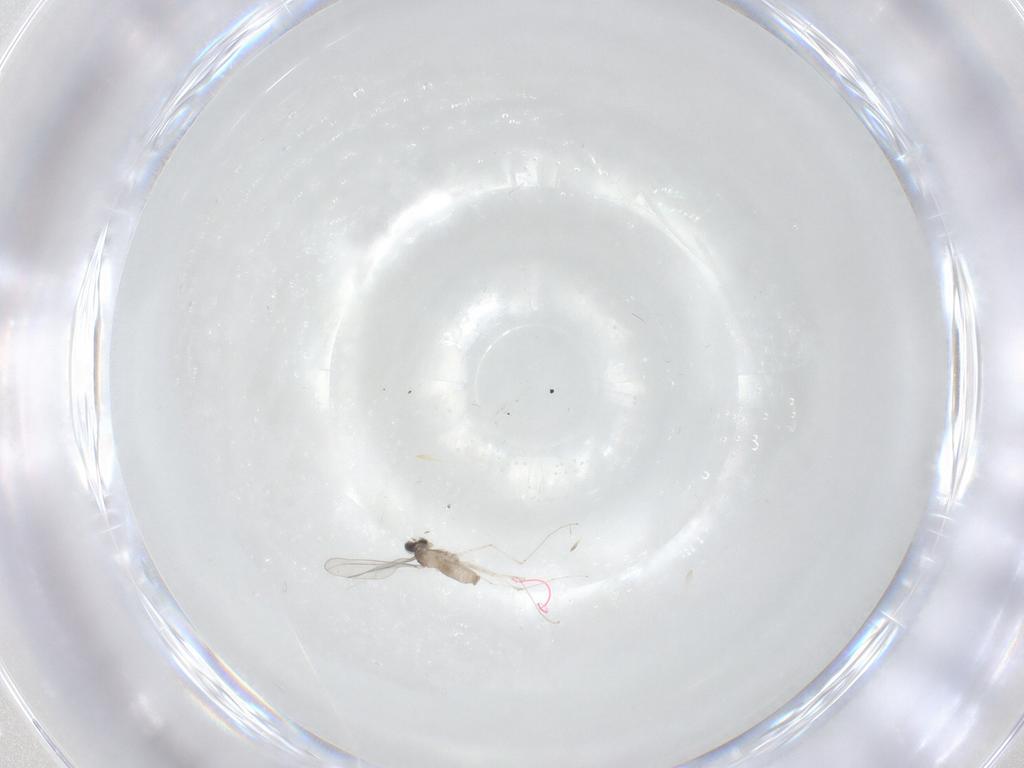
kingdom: Animalia
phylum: Arthropoda
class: Insecta
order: Diptera
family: Cecidomyiidae
